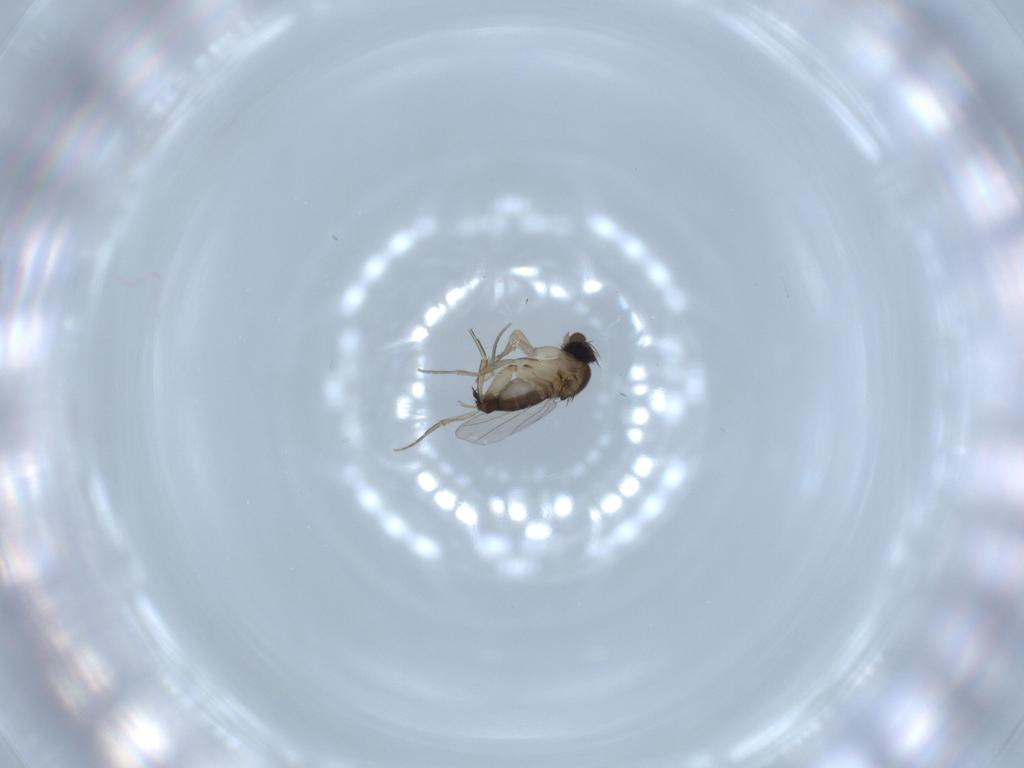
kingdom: Animalia
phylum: Arthropoda
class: Insecta
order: Diptera
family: Phoridae
